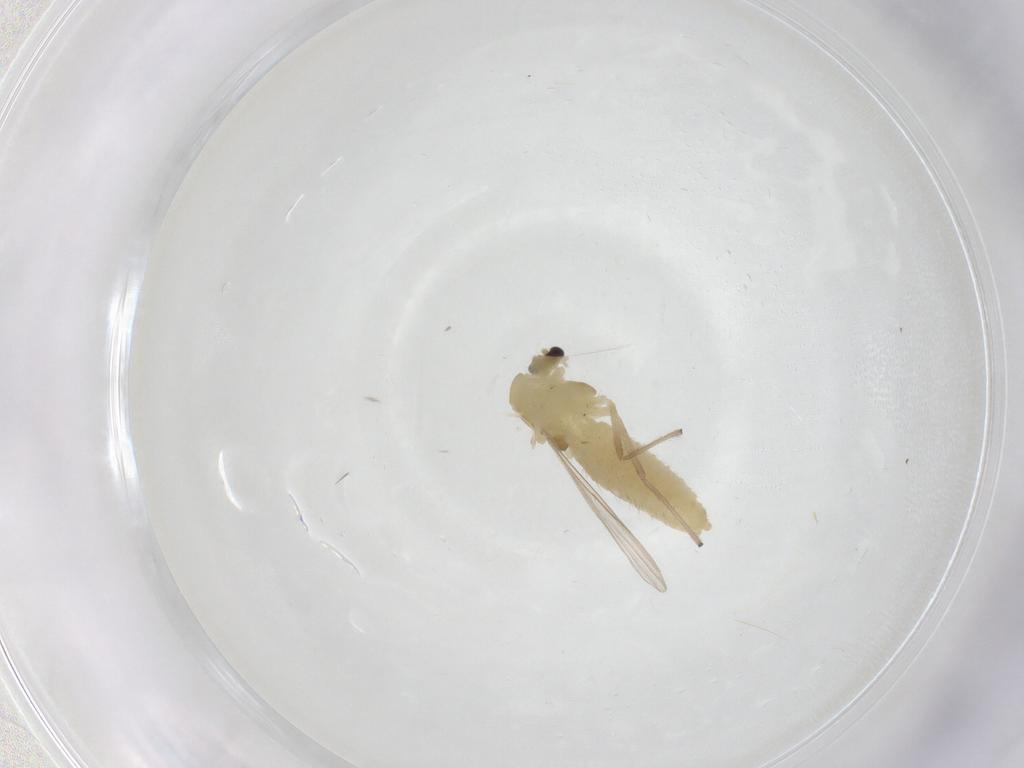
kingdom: Animalia
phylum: Arthropoda
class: Insecta
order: Diptera
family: Chironomidae
